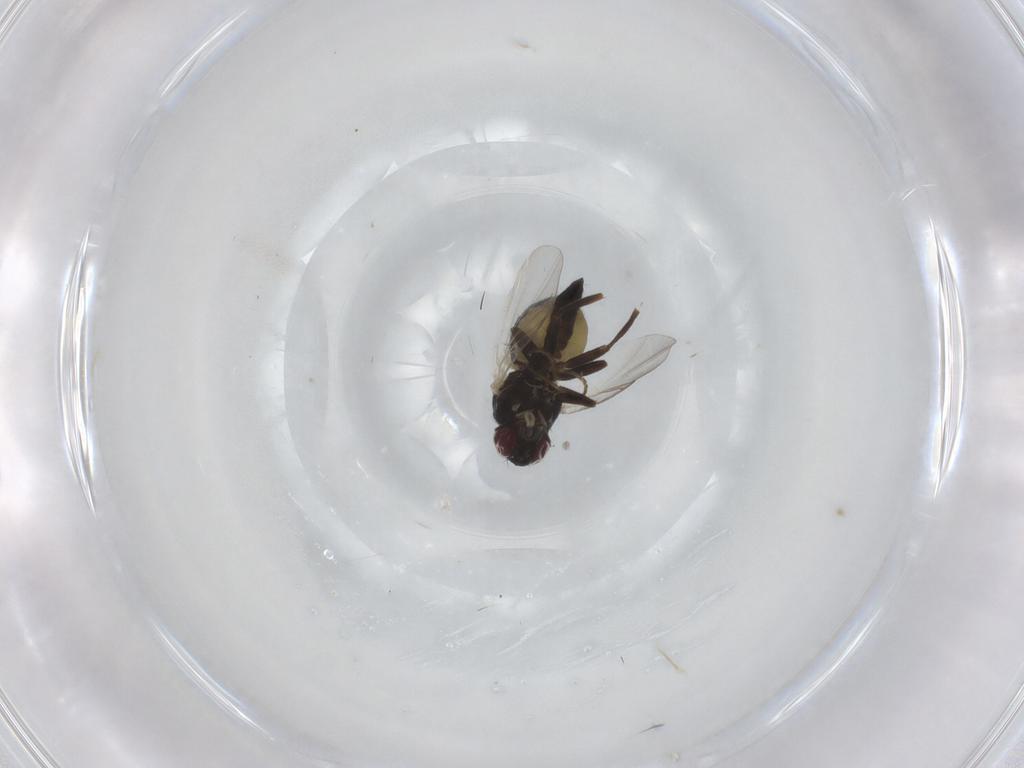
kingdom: Animalia
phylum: Arthropoda
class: Insecta
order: Diptera
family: Agromyzidae
